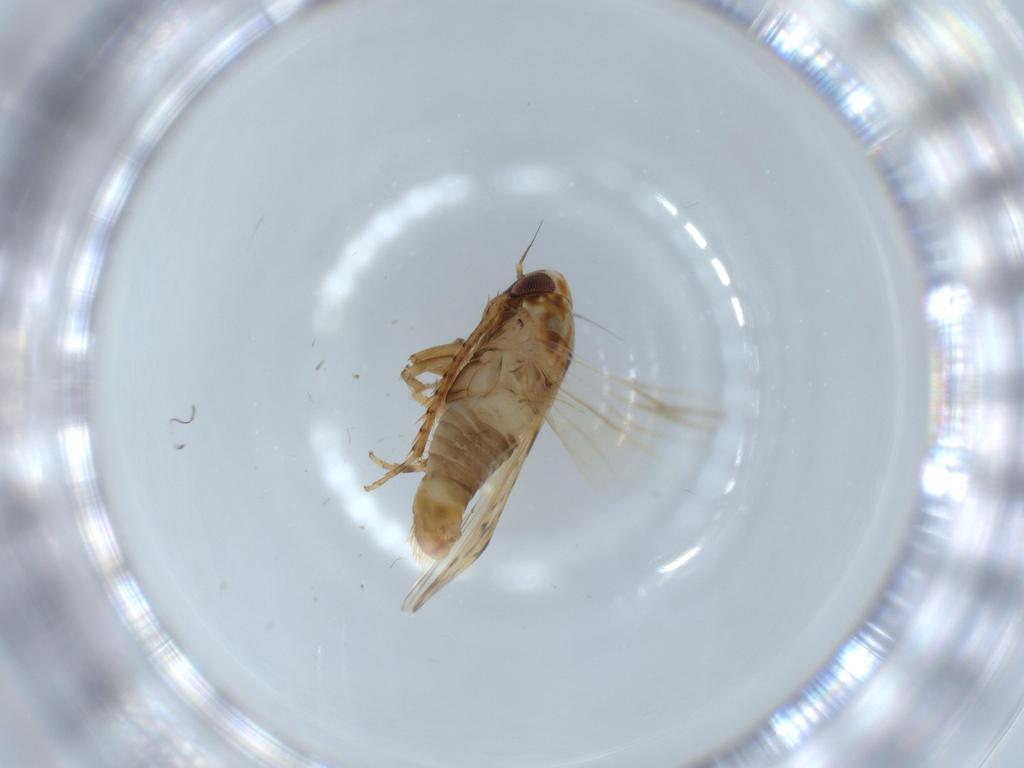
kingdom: Animalia
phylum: Arthropoda
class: Insecta
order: Hemiptera
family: Cicadellidae
